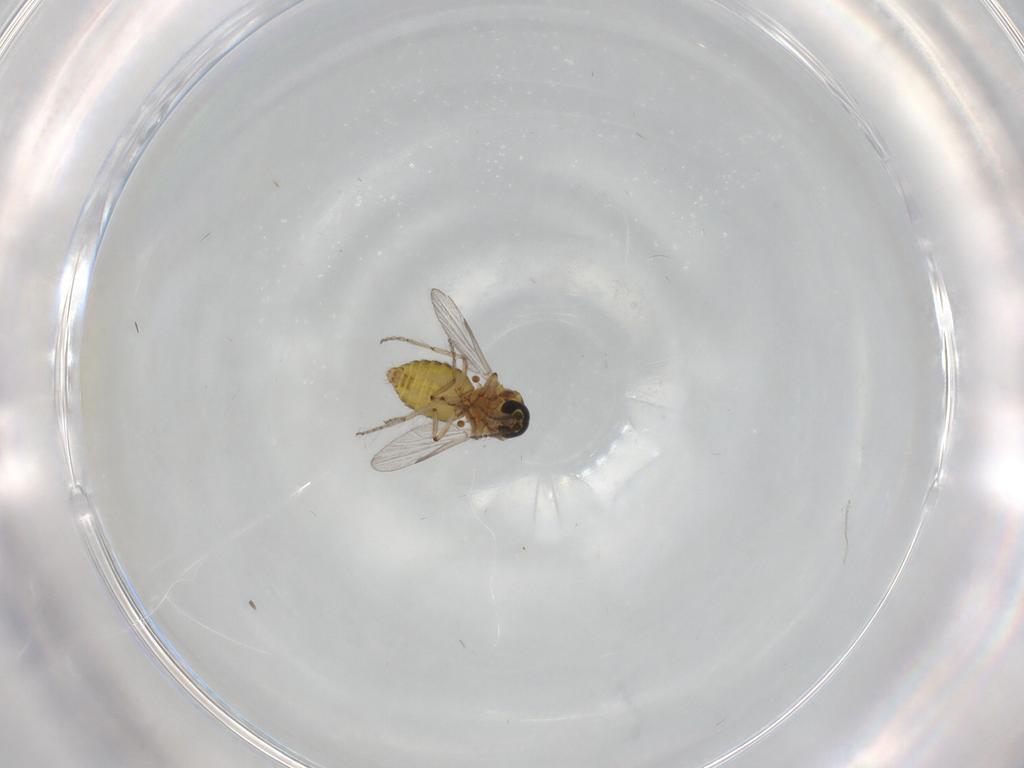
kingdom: Animalia
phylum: Arthropoda
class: Insecta
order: Diptera
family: Ceratopogonidae
